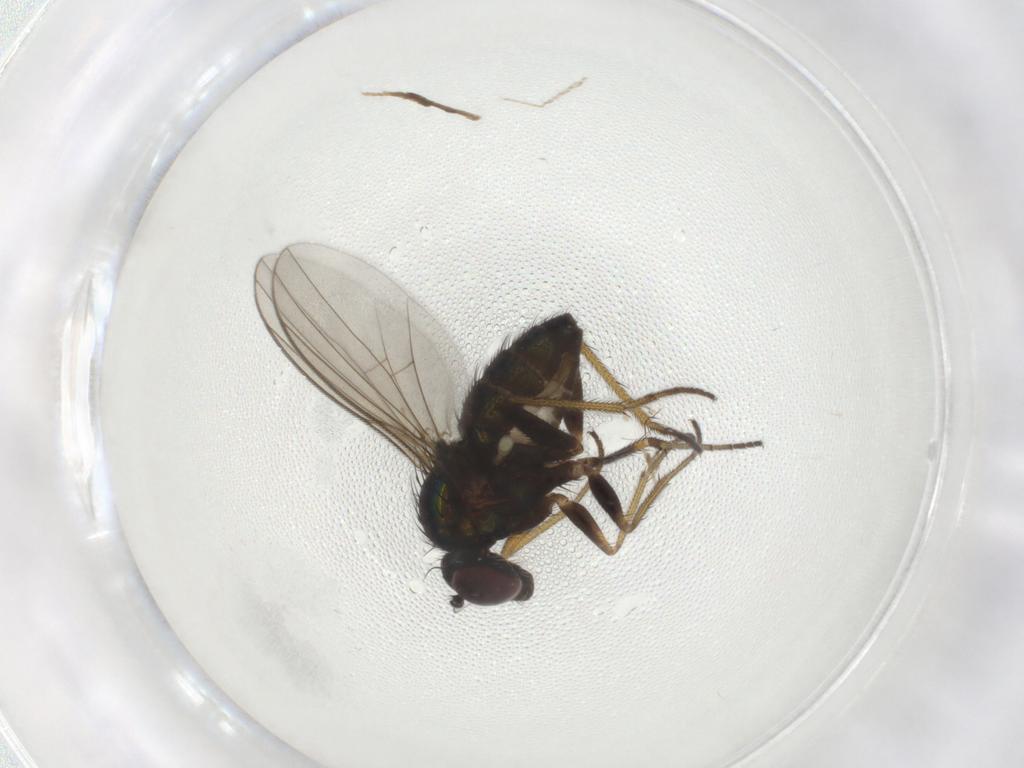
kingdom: Animalia
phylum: Arthropoda
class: Insecta
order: Diptera
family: Dolichopodidae
